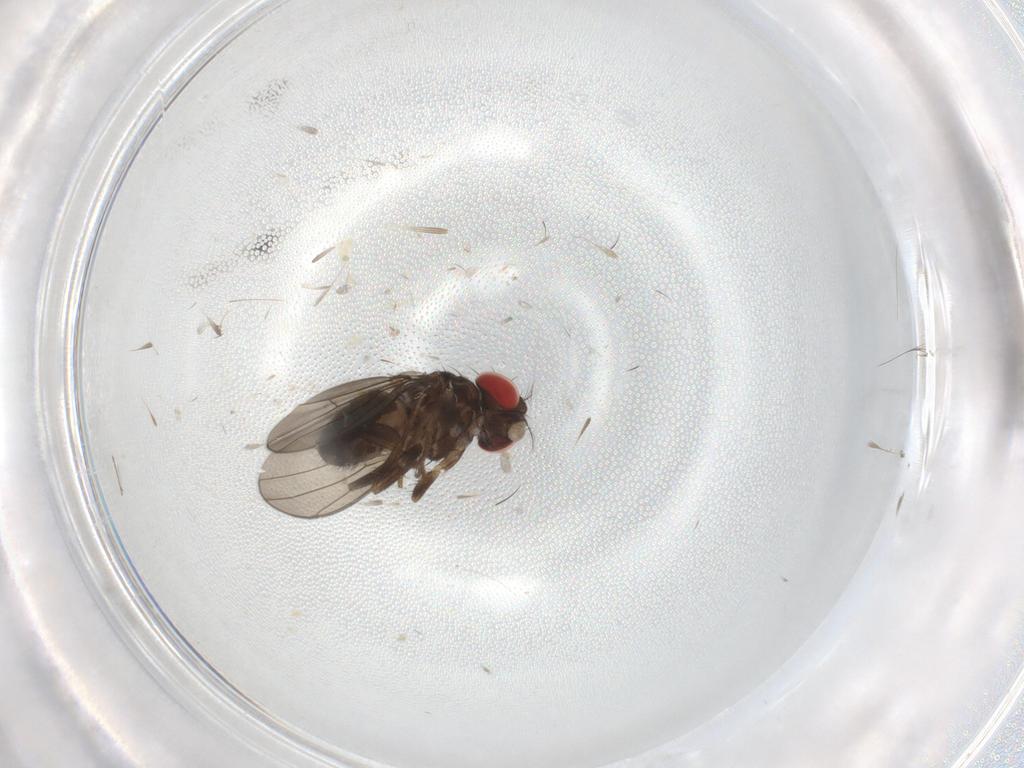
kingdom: Animalia
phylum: Arthropoda
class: Insecta
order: Diptera
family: Drosophilidae
